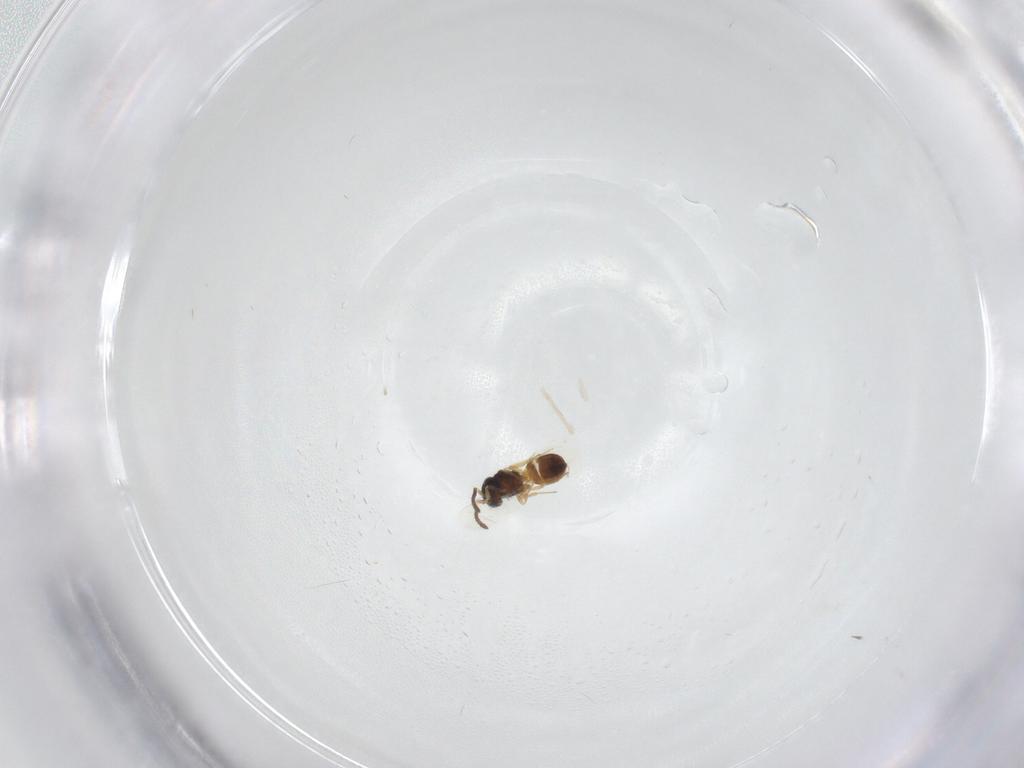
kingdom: Animalia
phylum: Arthropoda
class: Insecta
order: Hymenoptera
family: Scelionidae
